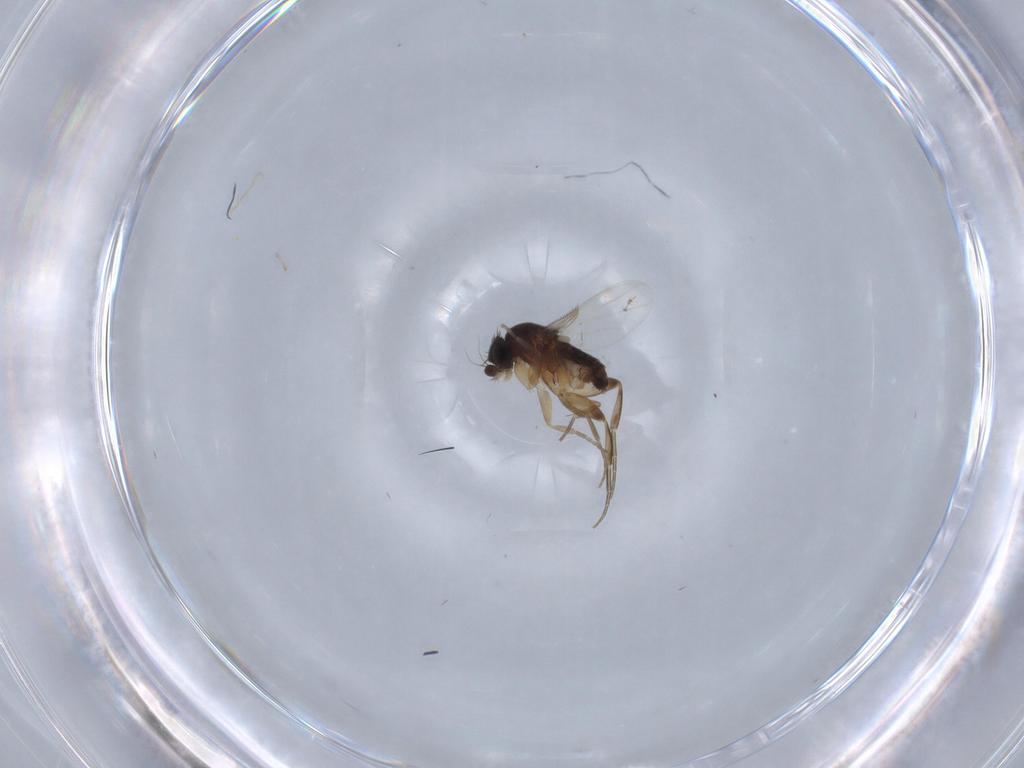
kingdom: Animalia
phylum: Arthropoda
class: Insecta
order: Diptera
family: Phoridae
